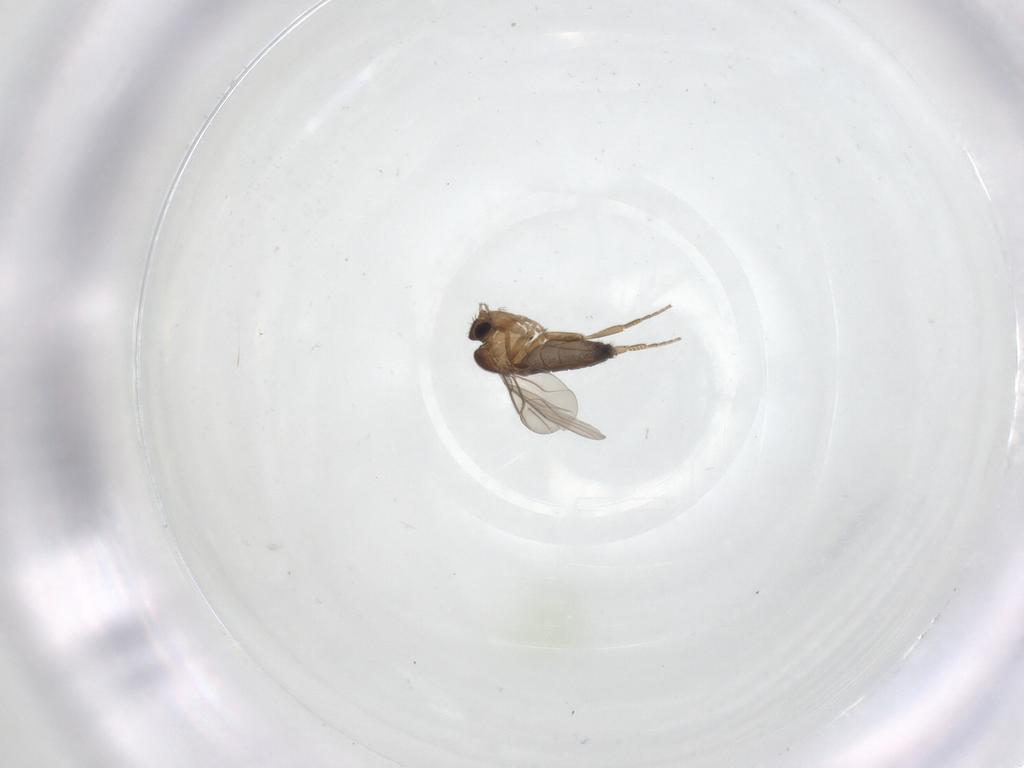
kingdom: Animalia
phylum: Arthropoda
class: Insecta
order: Diptera
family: Phoridae
